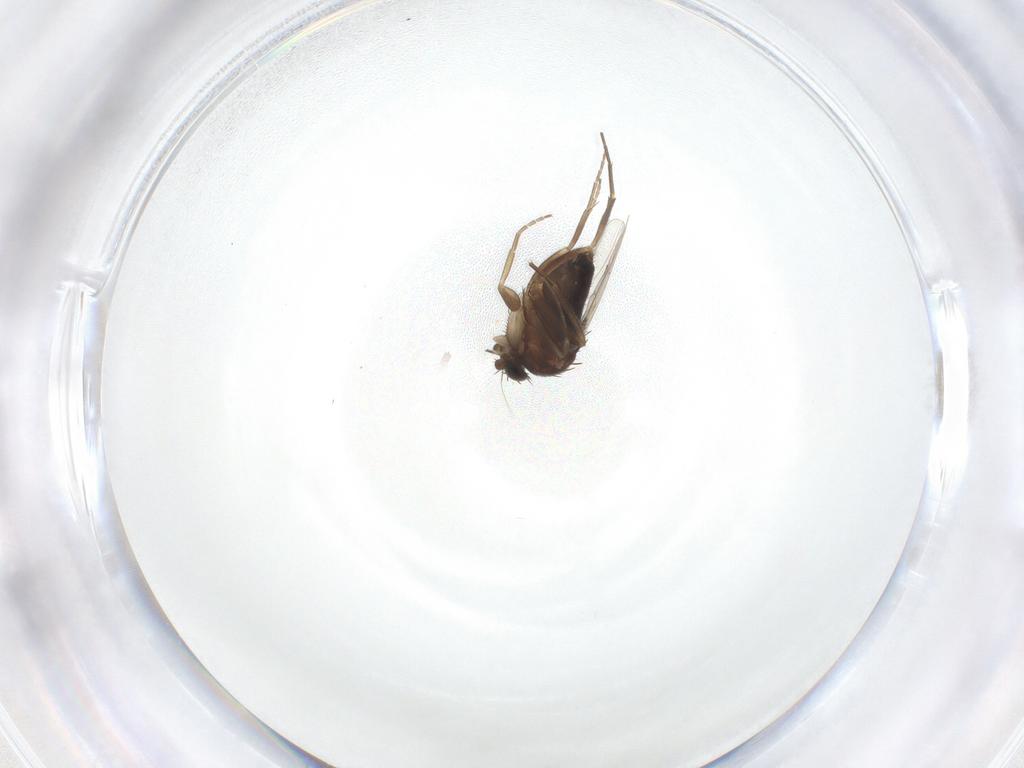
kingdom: Animalia
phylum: Arthropoda
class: Insecta
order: Diptera
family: Phoridae
